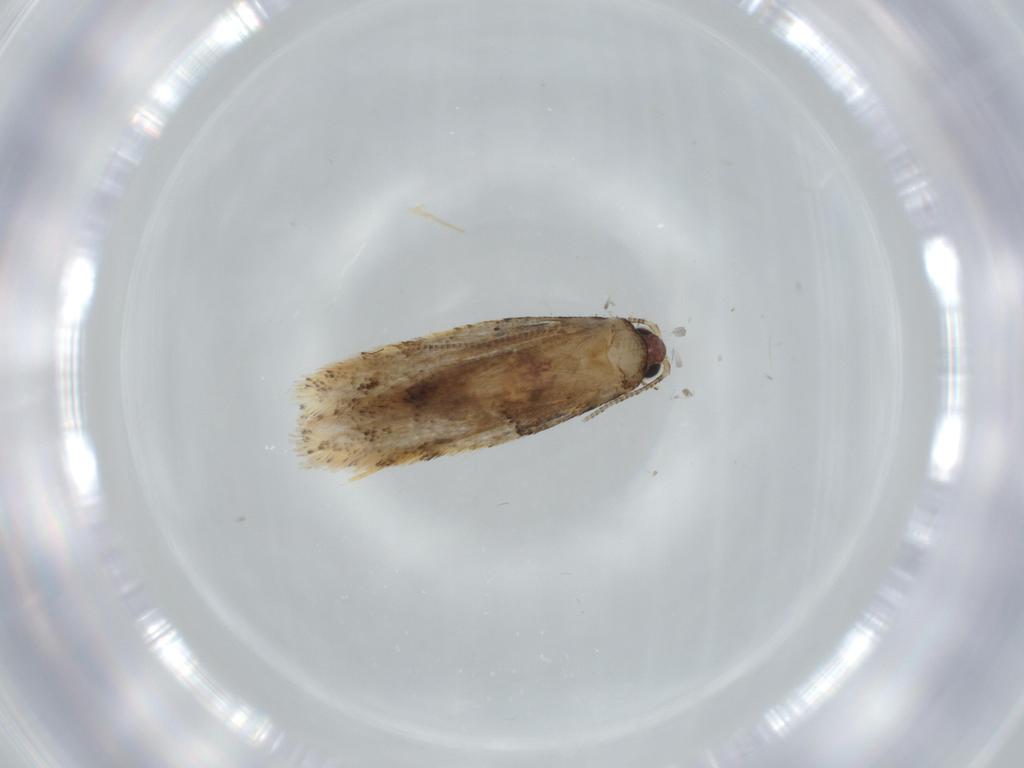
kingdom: Animalia
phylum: Arthropoda
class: Insecta
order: Lepidoptera
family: Tineidae
